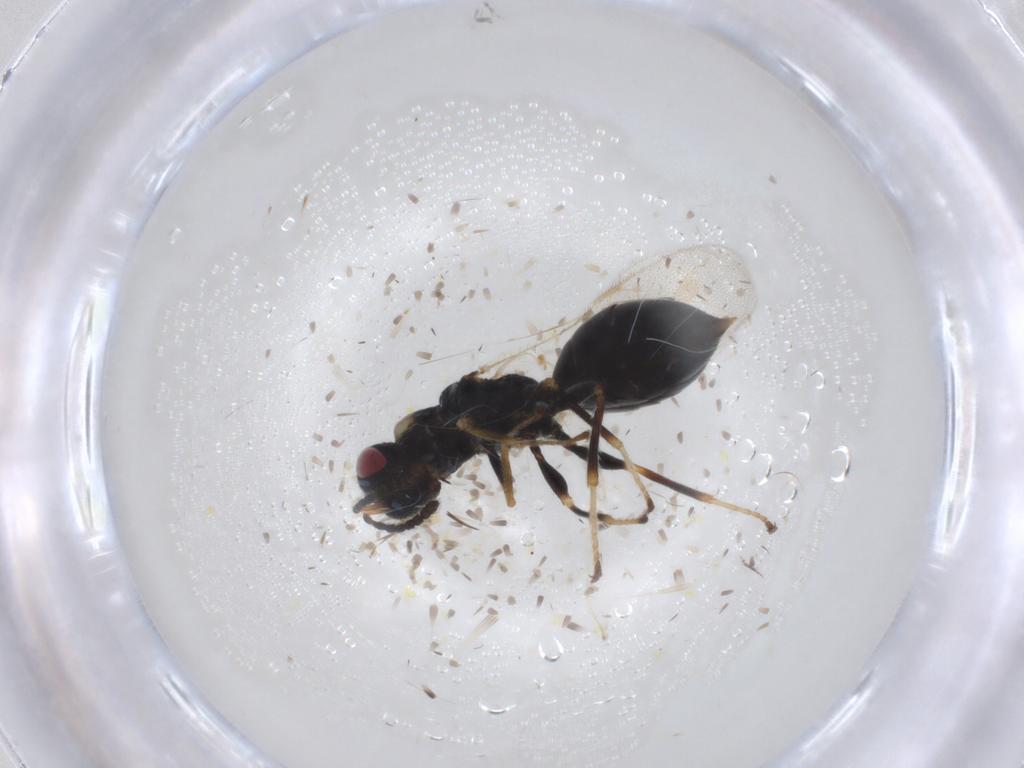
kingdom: Animalia
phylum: Arthropoda
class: Insecta
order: Hymenoptera
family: Eurytomidae
